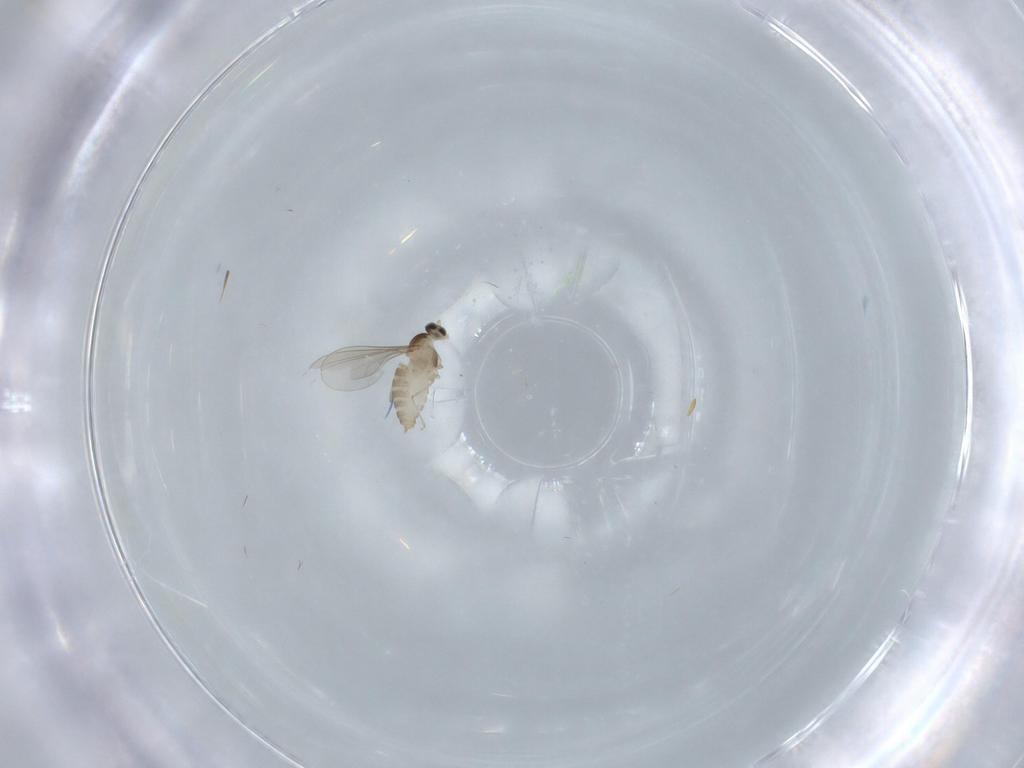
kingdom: Animalia
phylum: Arthropoda
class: Insecta
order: Diptera
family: Cecidomyiidae
